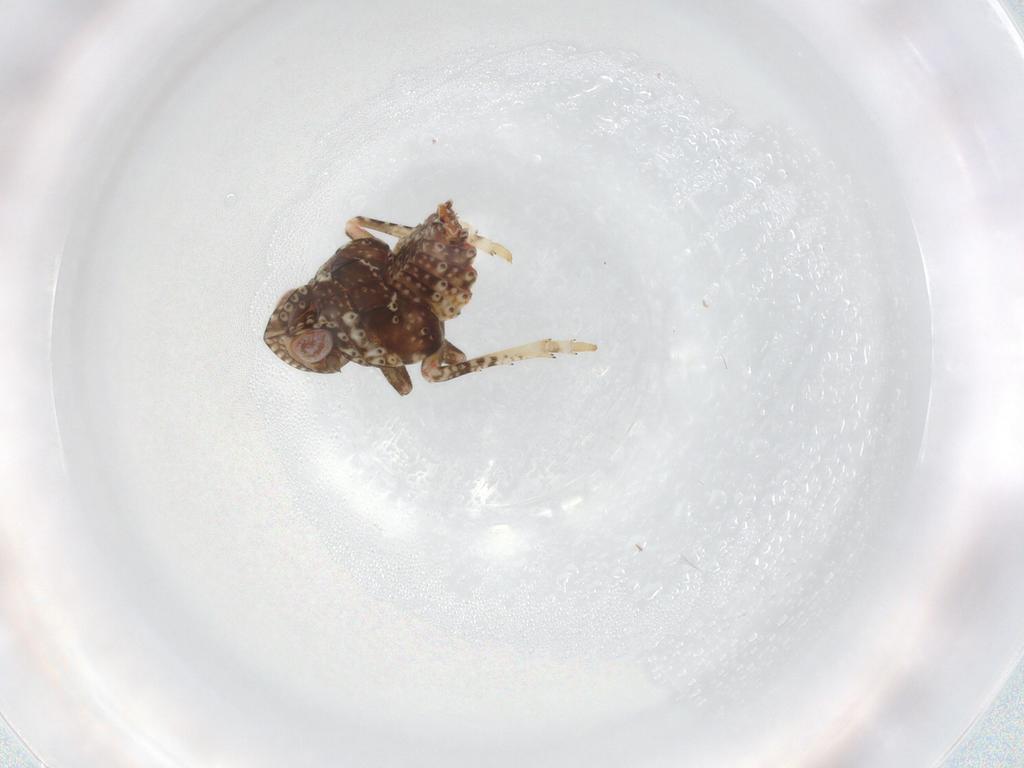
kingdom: Animalia
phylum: Arthropoda
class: Insecta
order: Hemiptera
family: Tropiduchidae
